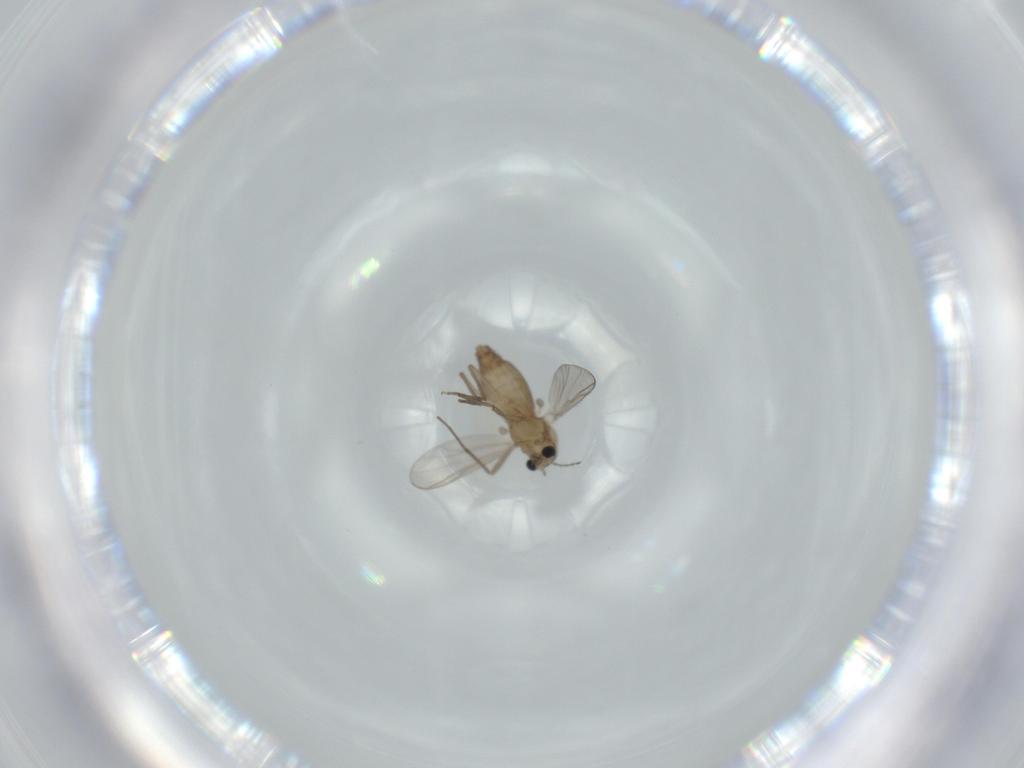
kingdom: Animalia
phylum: Arthropoda
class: Insecta
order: Diptera
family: Chironomidae
